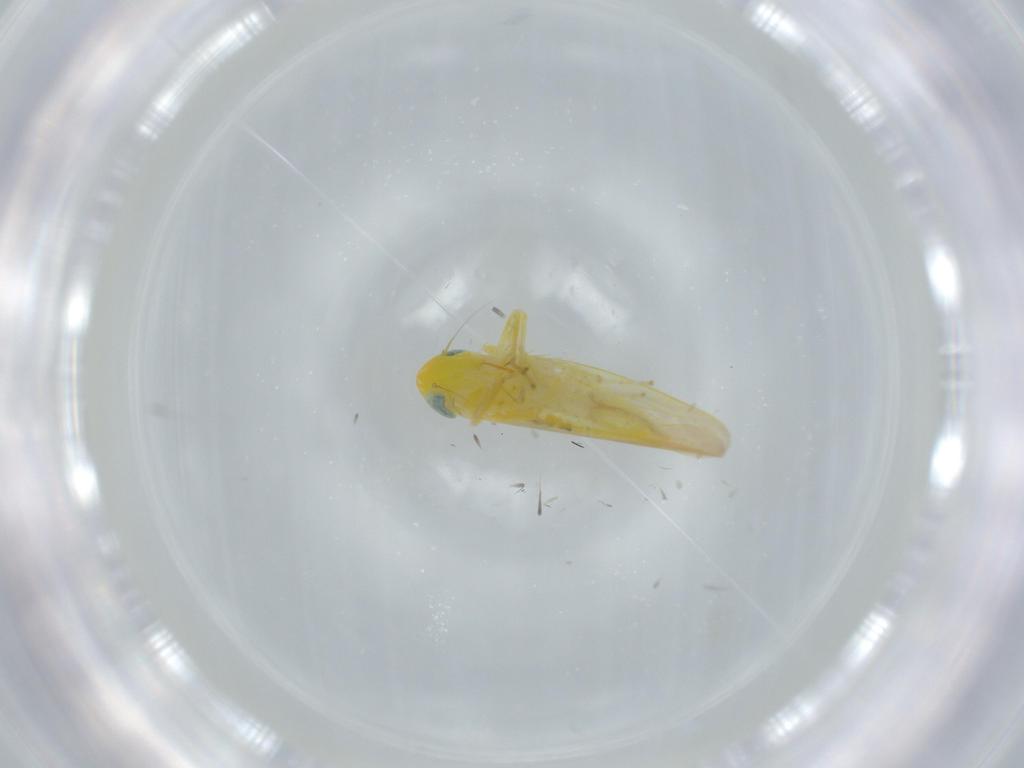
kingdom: Animalia
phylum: Arthropoda
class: Insecta
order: Hemiptera
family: Cicadellidae
